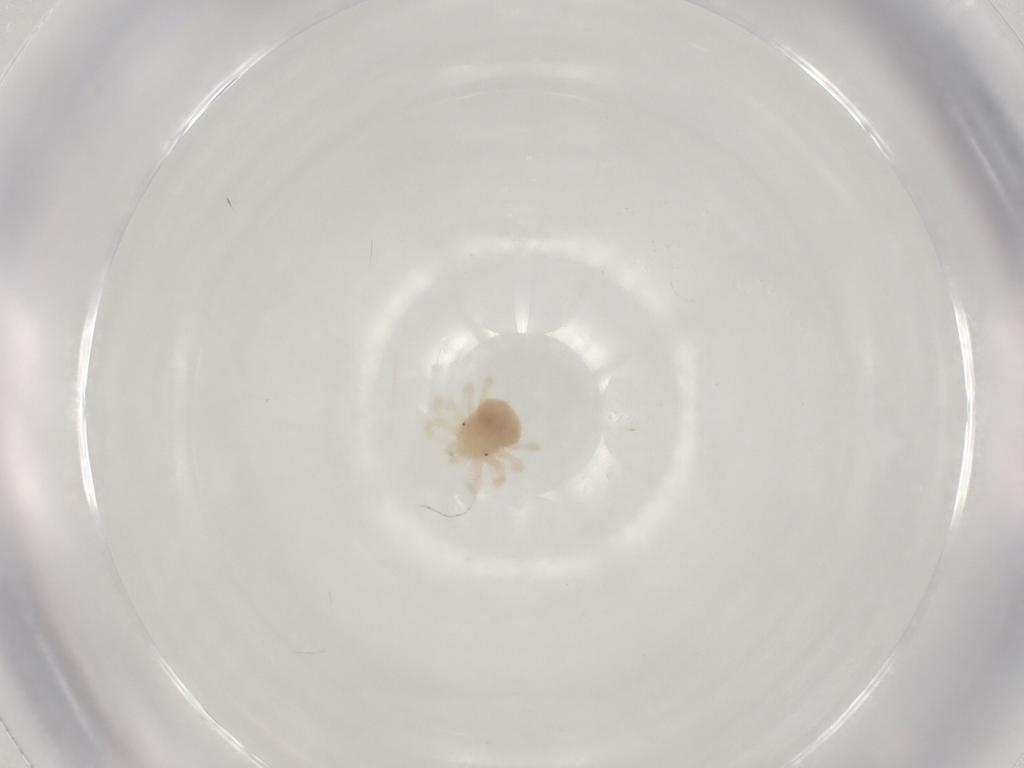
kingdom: Animalia
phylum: Arthropoda
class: Arachnida
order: Trombidiformes
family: Anystidae
